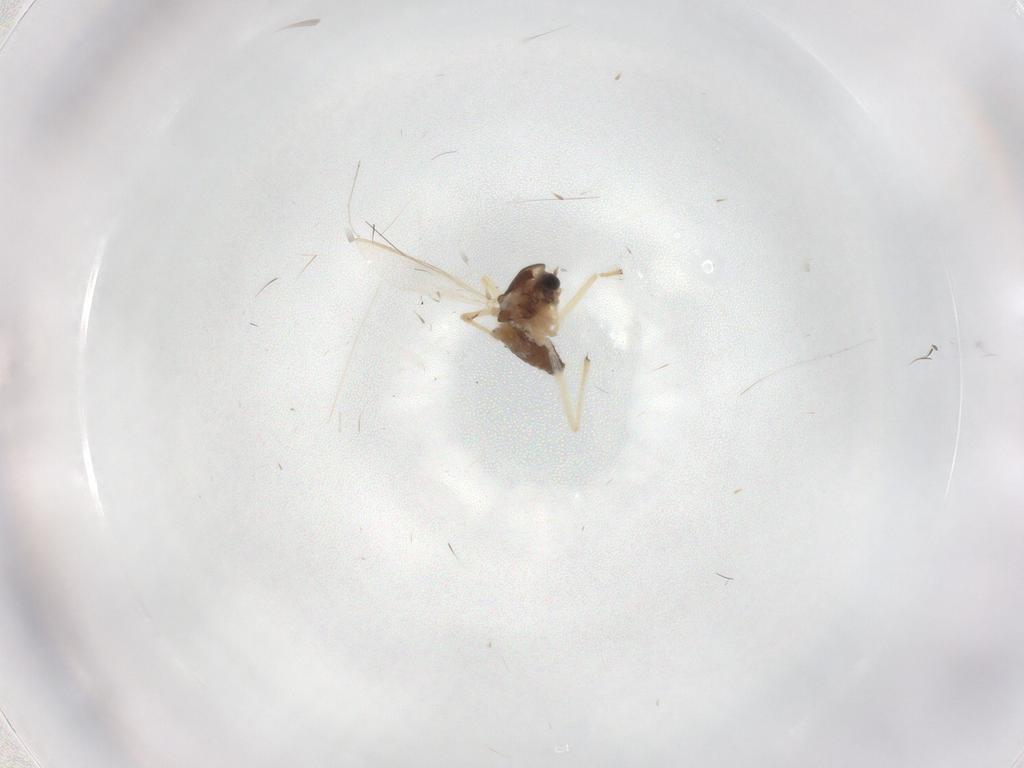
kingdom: Animalia
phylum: Arthropoda
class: Insecta
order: Diptera
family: Chironomidae
